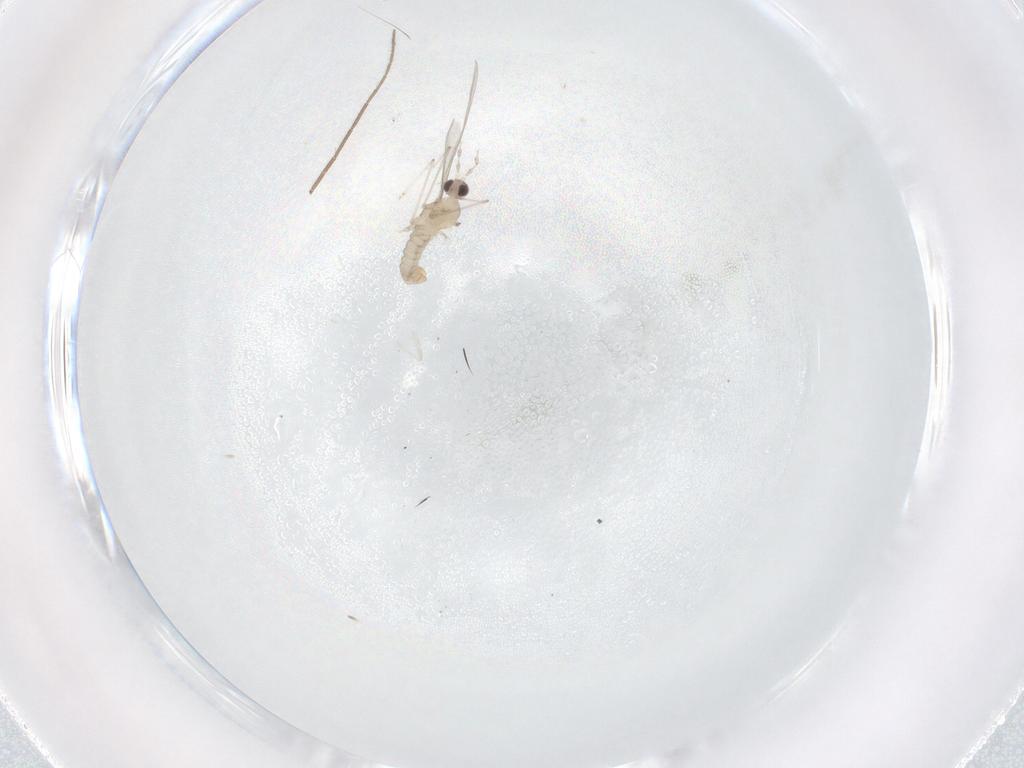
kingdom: Animalia
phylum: Arthropoda
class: Insecta
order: Diptera
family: Cecidomyiidae
